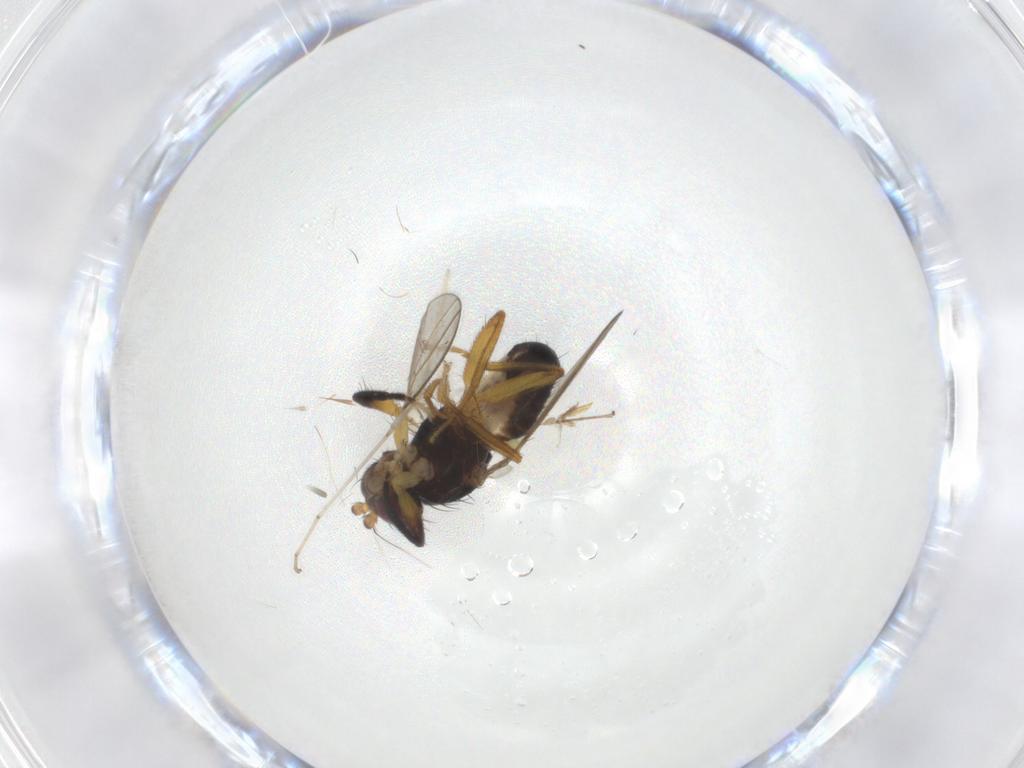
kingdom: Animalia
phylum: Arthropoda
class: Insecta
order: Diptera
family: Pseudopomyzidae
